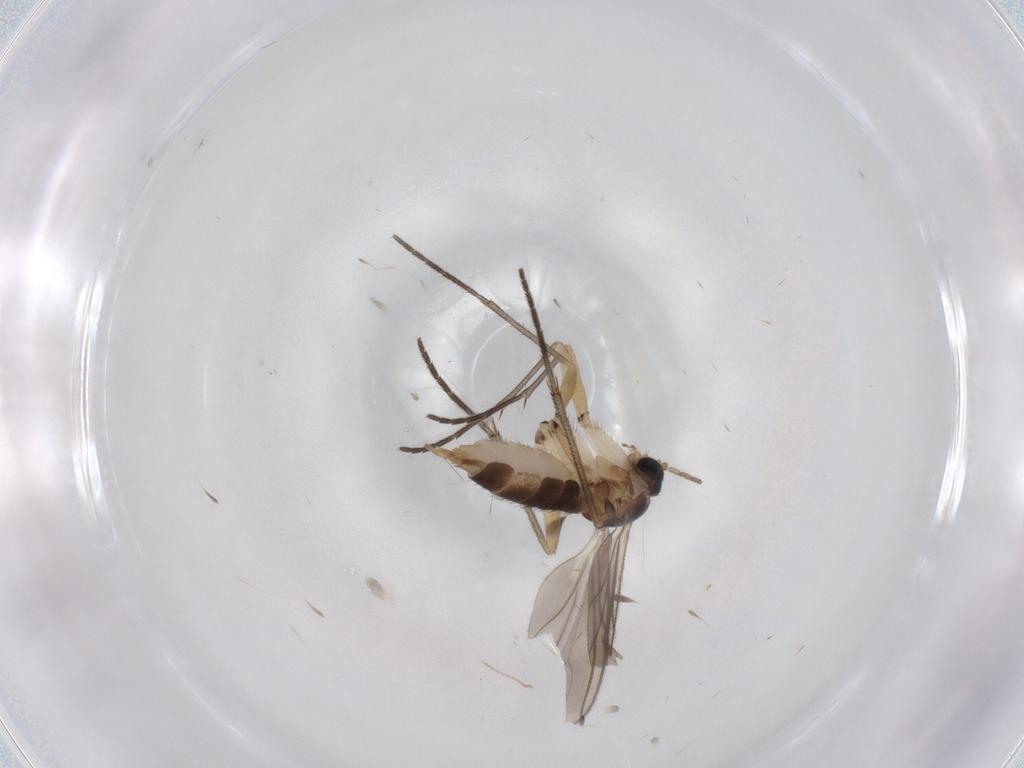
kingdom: Animalia
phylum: Arthropoda
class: Insecta
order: Diptera
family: Cecidomyiidae
